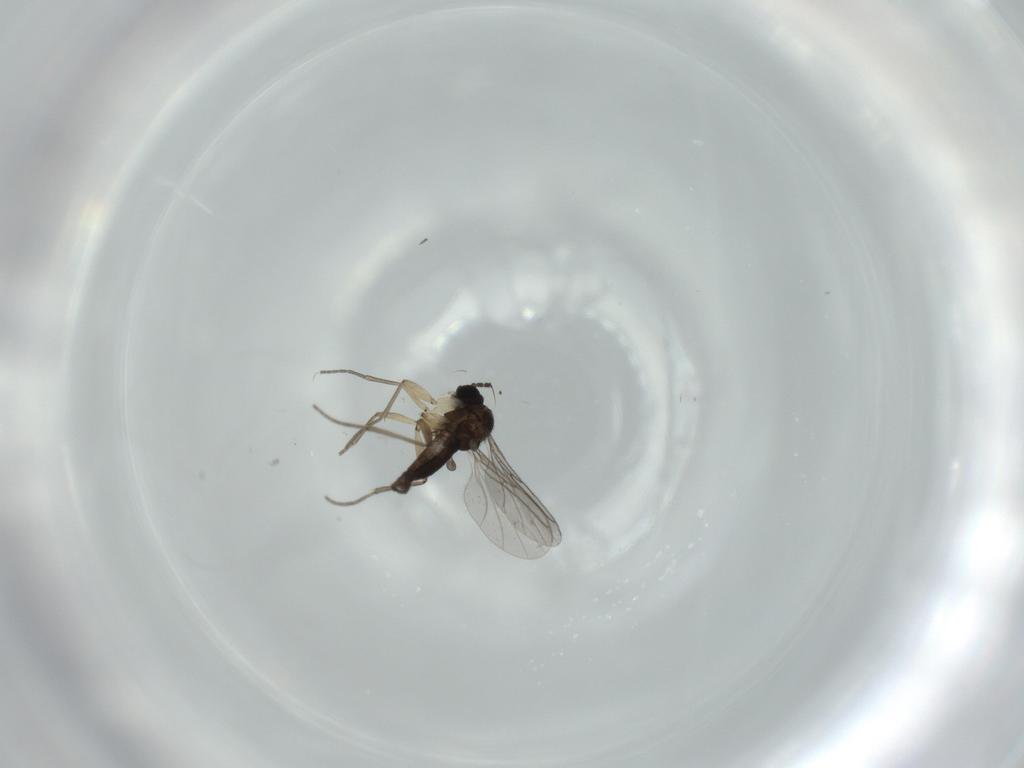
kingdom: Animalia
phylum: Arthropoda
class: Insecta
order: Diptera
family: Sciaridae
